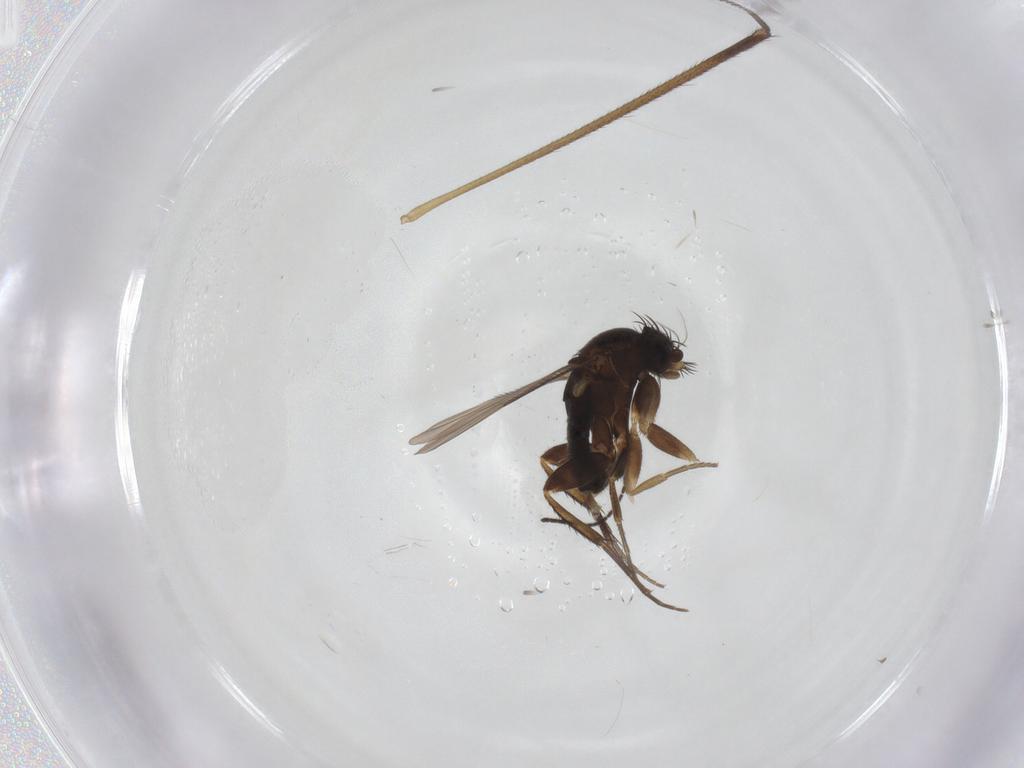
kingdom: Animalia
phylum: Arthropoda
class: Insecta
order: Diptera
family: Phoridae
